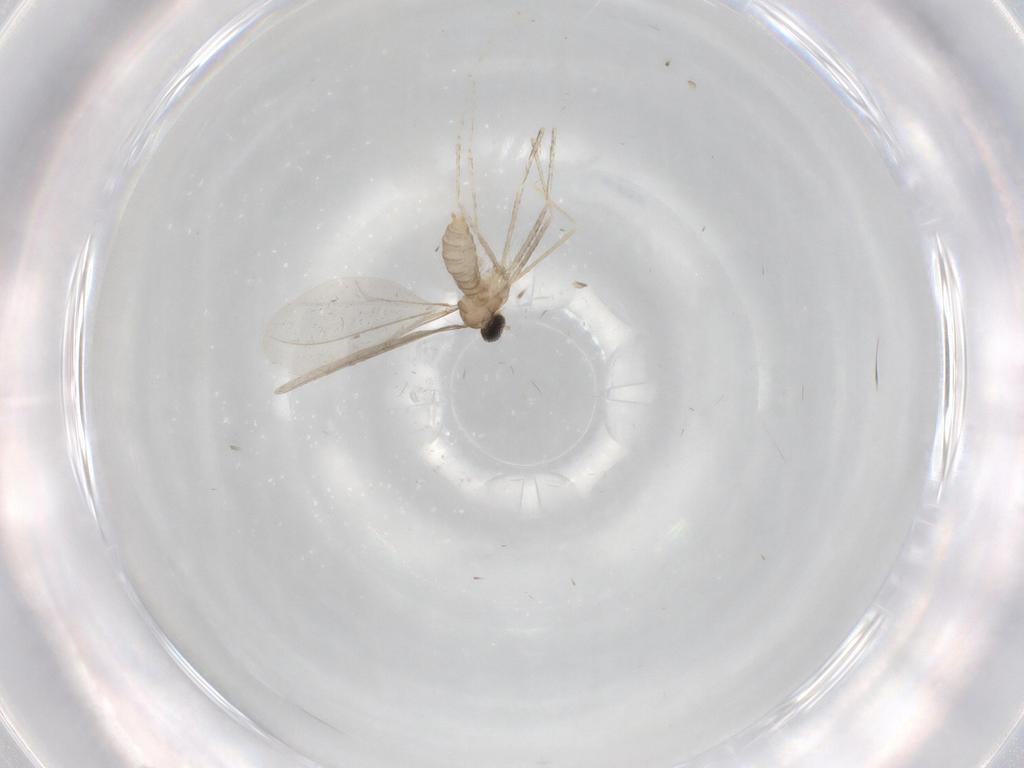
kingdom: Animalia
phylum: Arthropoda
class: Insecta
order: Diptera
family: Cecidomyiidae
